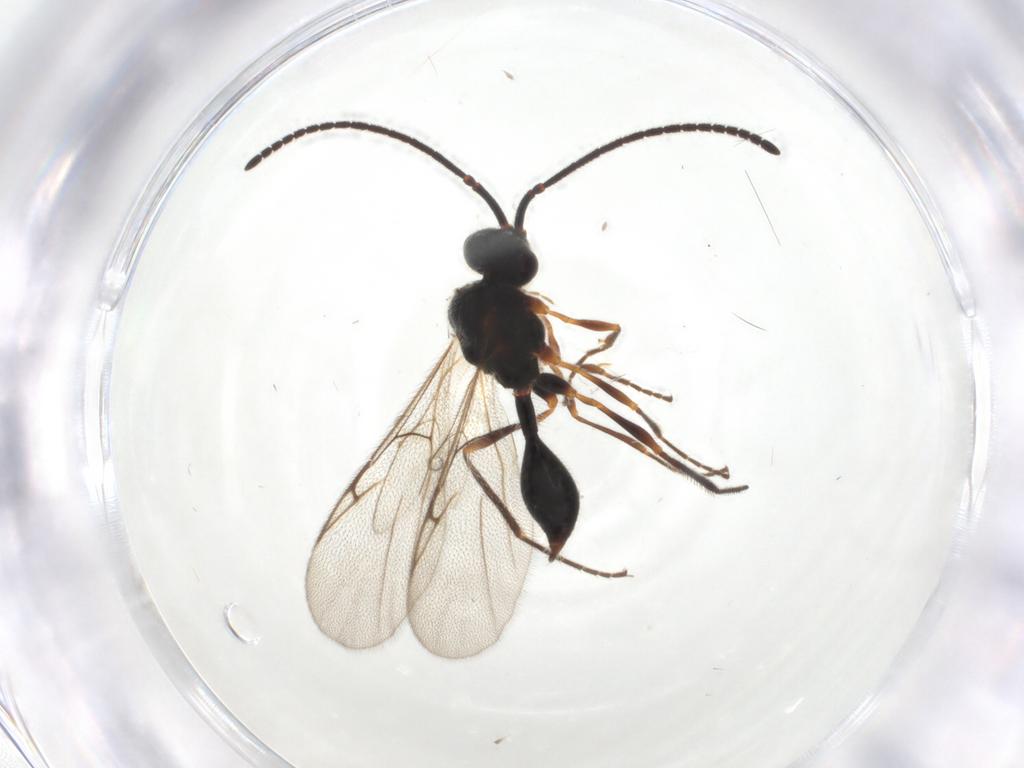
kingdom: Animalia
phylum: Arthropoda
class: Insecta
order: Hymenoptera
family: Diapriidae
